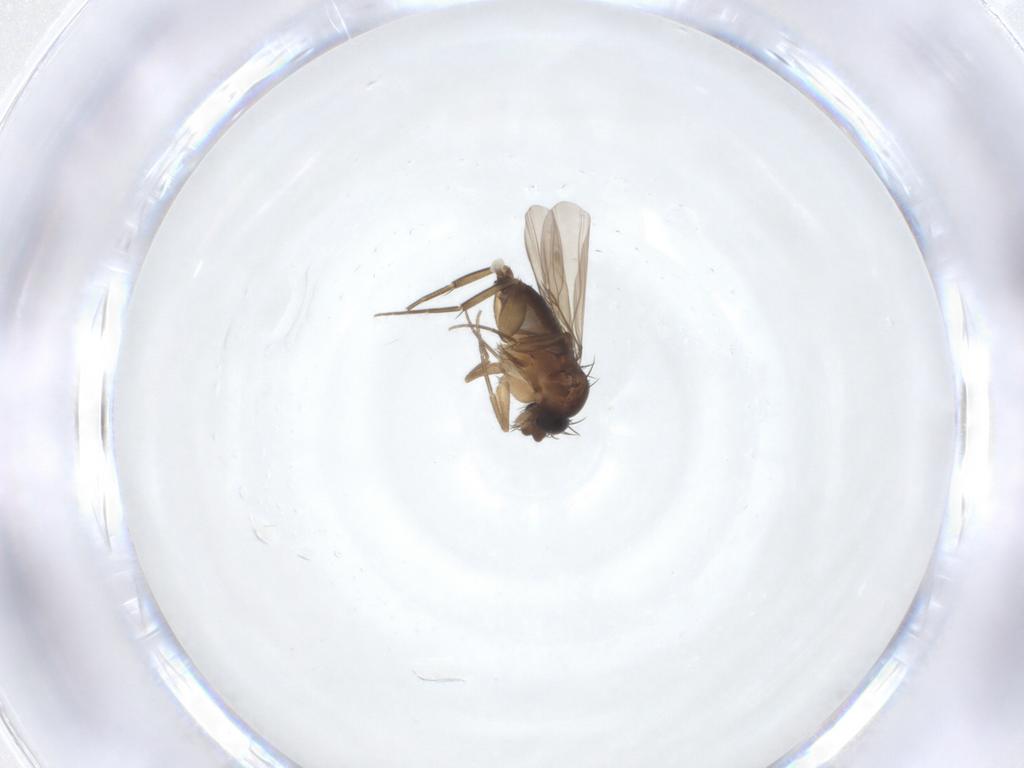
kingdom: Animalia
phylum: Arthropoda
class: Insecta
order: Diptera
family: Phoridae
